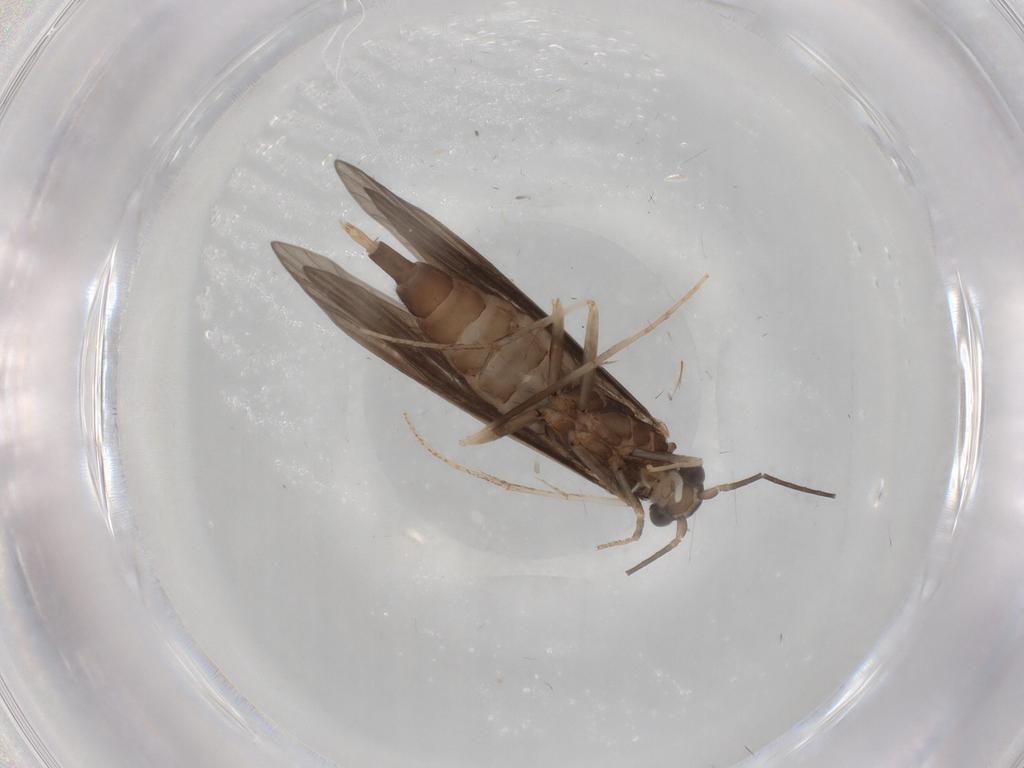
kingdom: Animalia
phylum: Arthropoda
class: Insecta
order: Trichoptera
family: Xiphocentronidae
